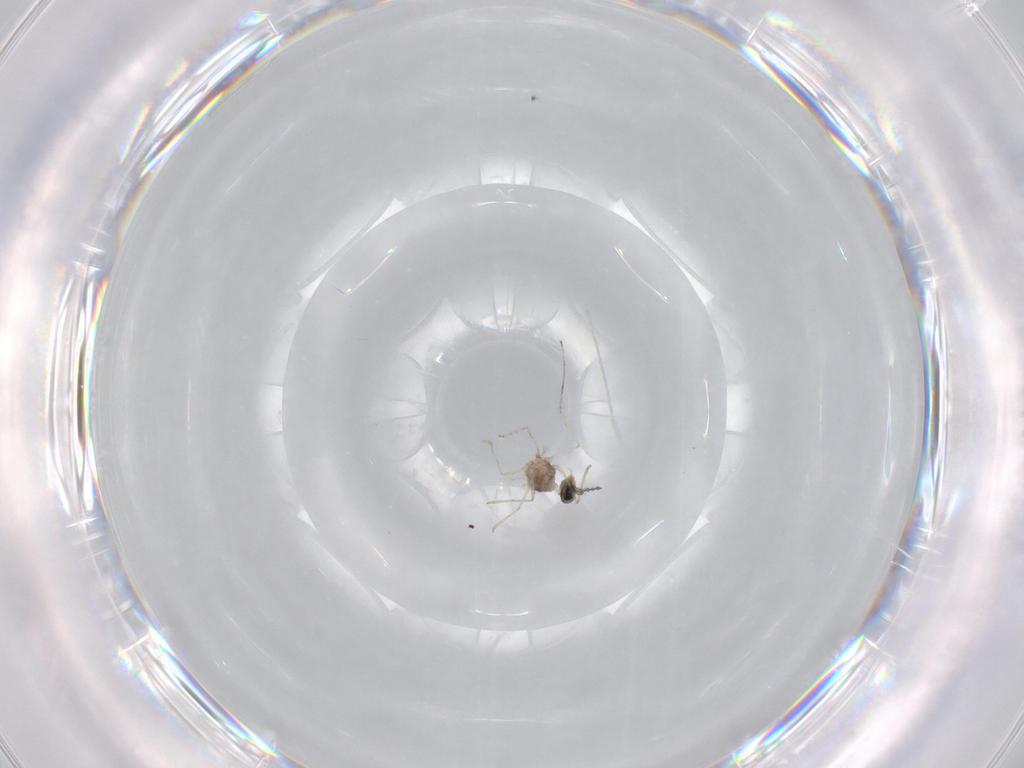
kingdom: Animalia
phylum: Arthropoda
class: Insecta
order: Diptera
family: Cecidomyiidae
